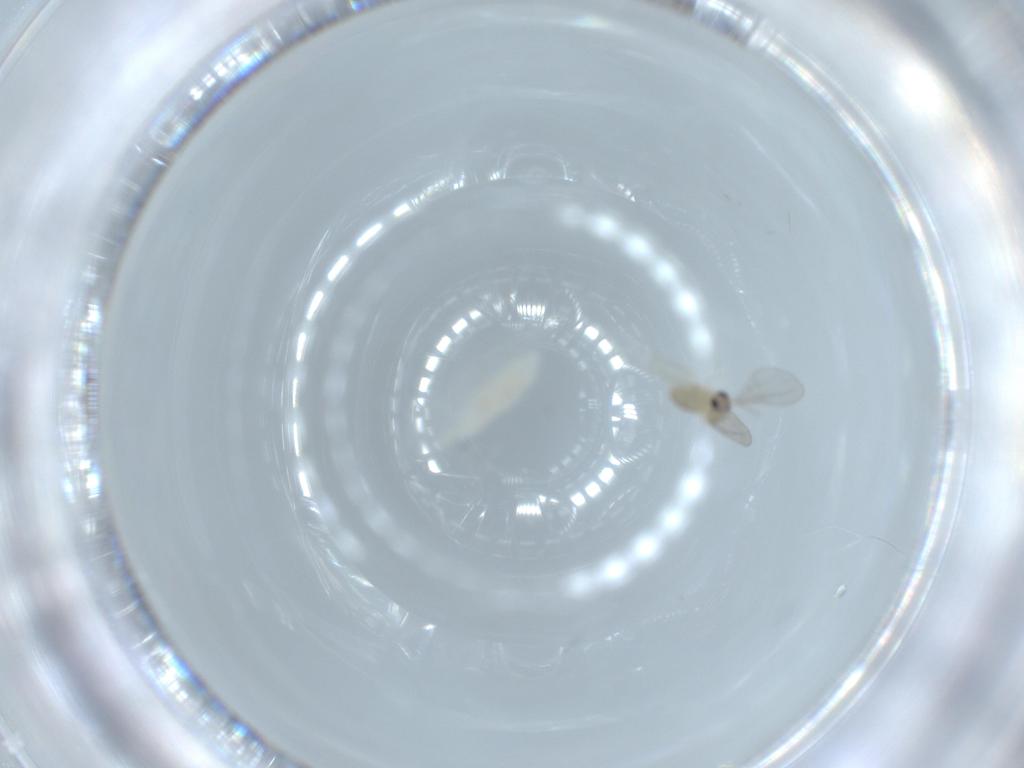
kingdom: Animalia
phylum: Arthropoda
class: Insecta
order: Diptera
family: Cecidomyiidae
